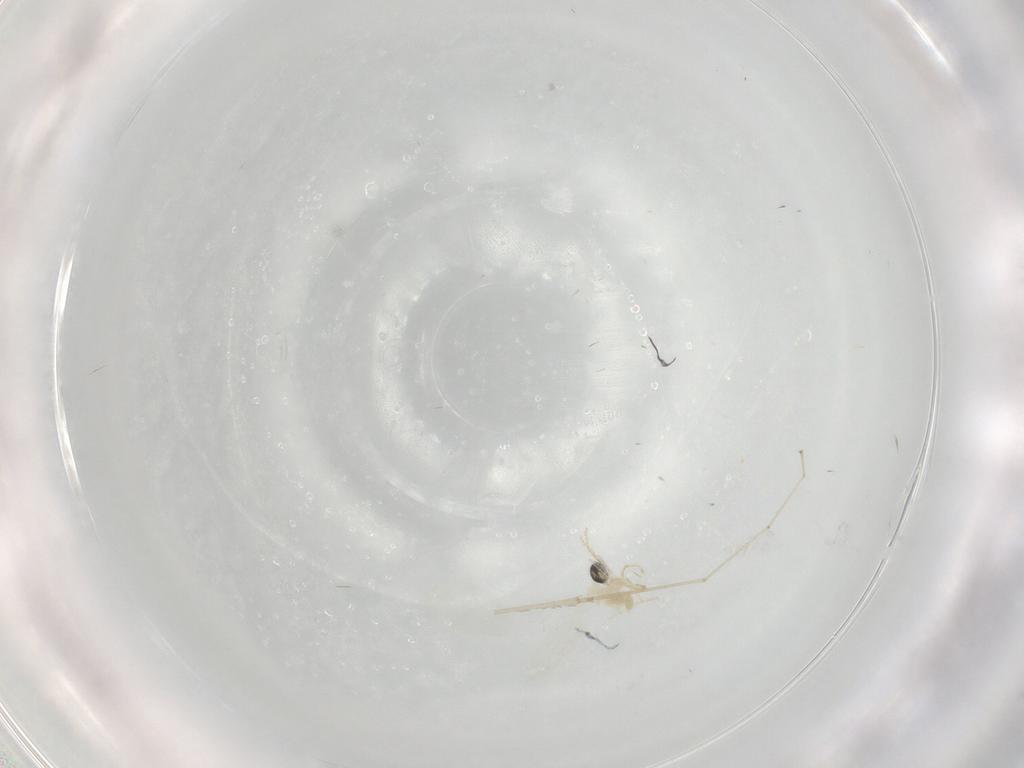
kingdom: Animalia
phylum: Arthropoda
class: Insecta
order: Diptera
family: Cecidomyiidae
